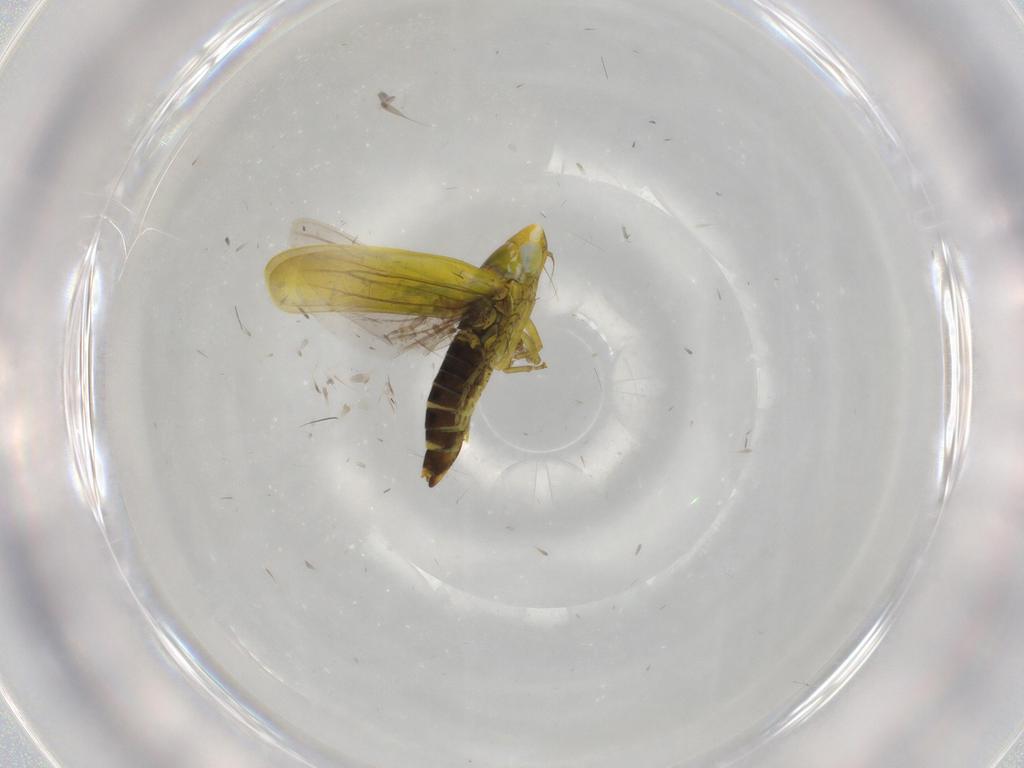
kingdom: Animalia
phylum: Arthropoda
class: Insecta
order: Hemiptera
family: Cicadellidae
